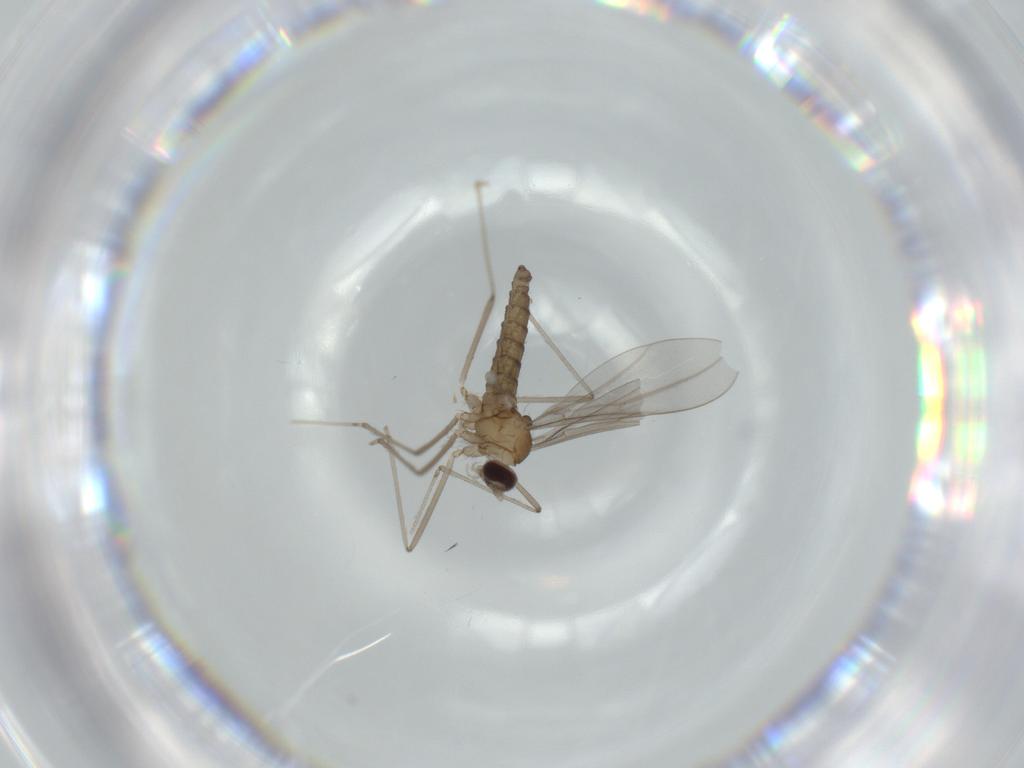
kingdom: Animalia
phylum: Arthropoda
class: Insecta
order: Diptera
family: Cecidomyiidae
